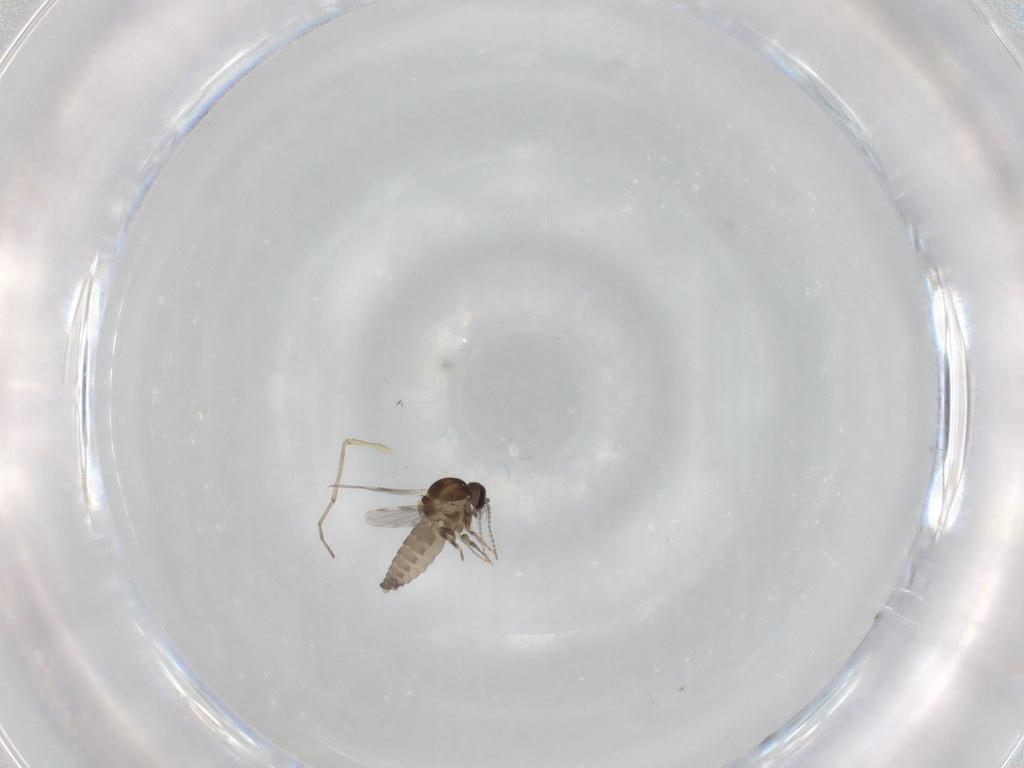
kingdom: Animalia
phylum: Arthropoda
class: Insecta
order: Diptera
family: Ceratopogonidae
